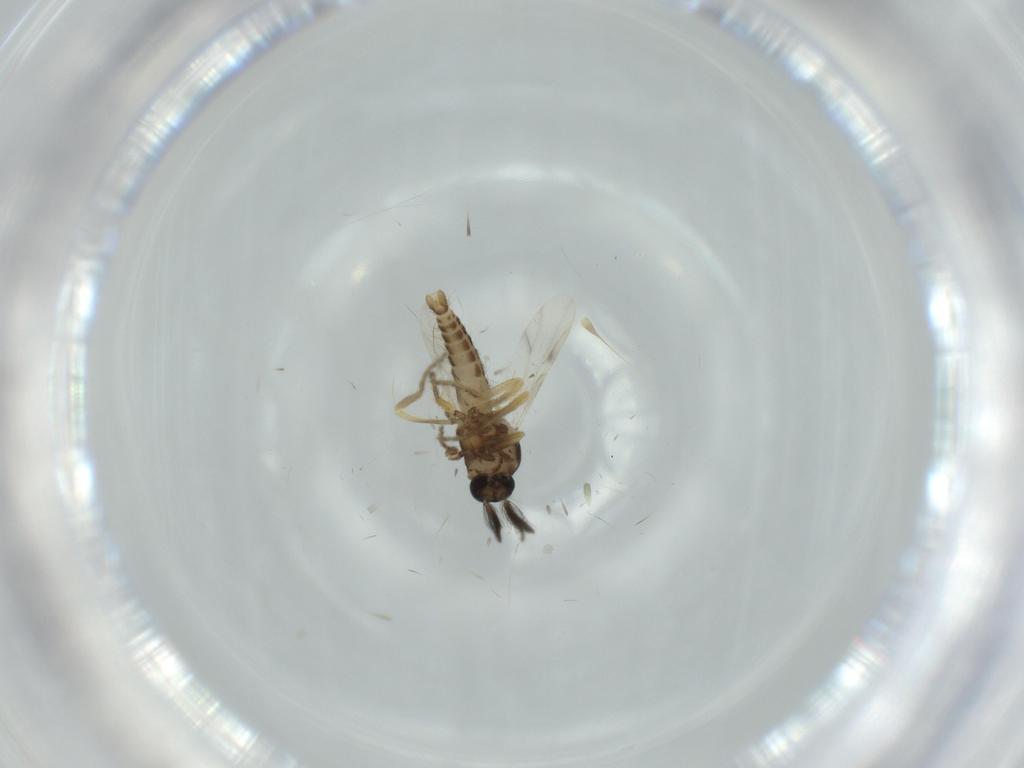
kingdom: Animalia
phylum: Arthropoda
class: Insecta
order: Diptera
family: Ceratopogonidae
